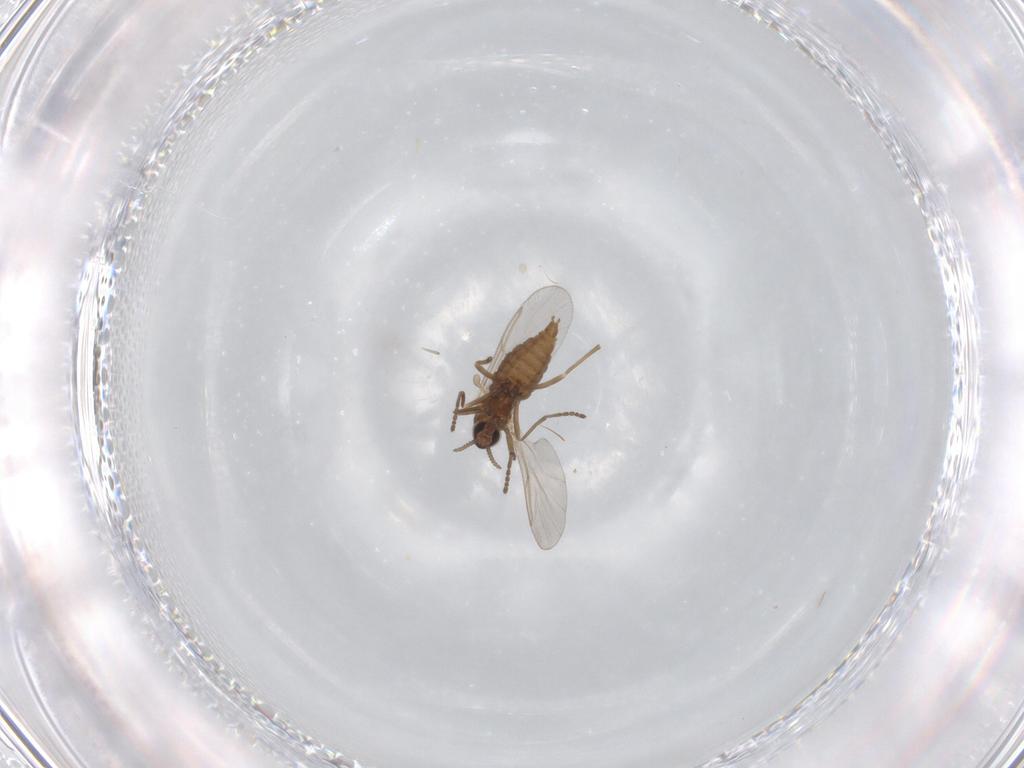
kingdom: Animalia
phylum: Arthropoda
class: Insecta
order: Diptera
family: Cecidomyiidae
